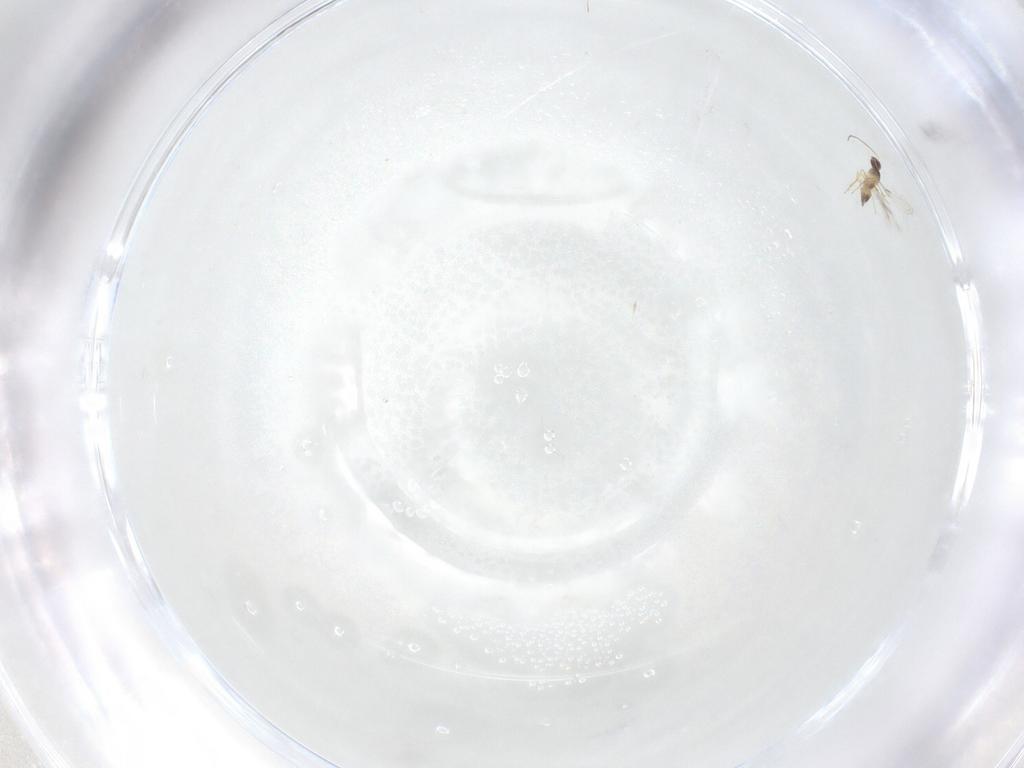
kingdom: Animalia
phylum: Arthropoda
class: Insecta
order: Hymenoptera
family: Mymaridae
